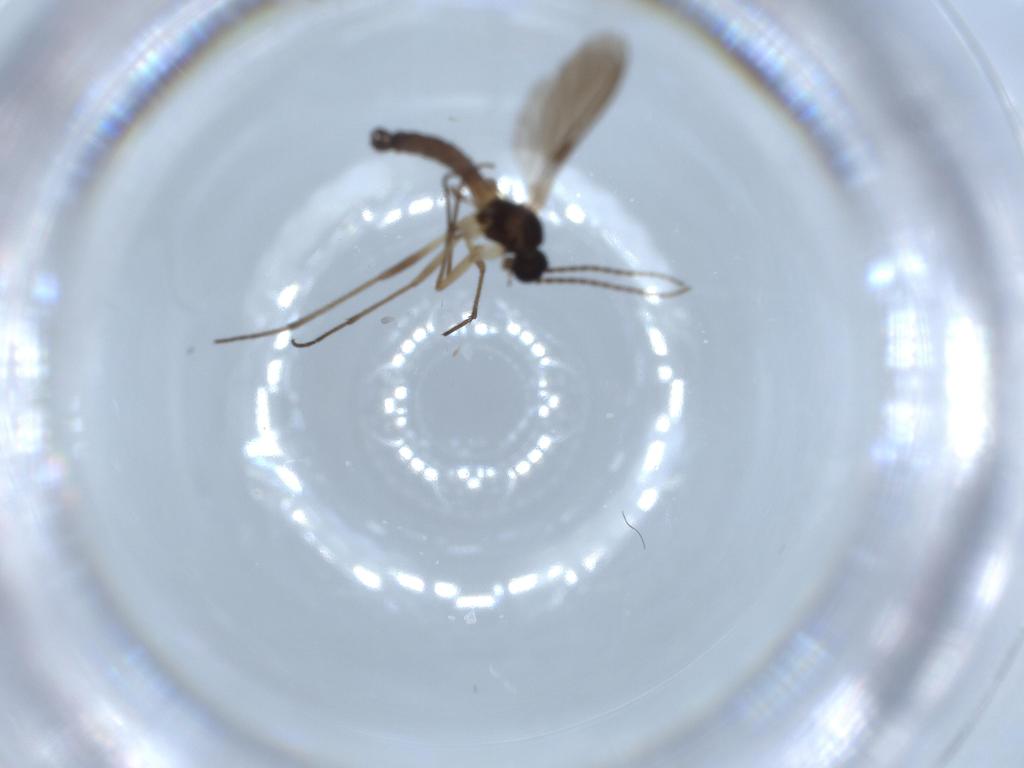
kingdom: Animalia
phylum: Arthropoda
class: Insecta
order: Diptera
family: Sciaridae
